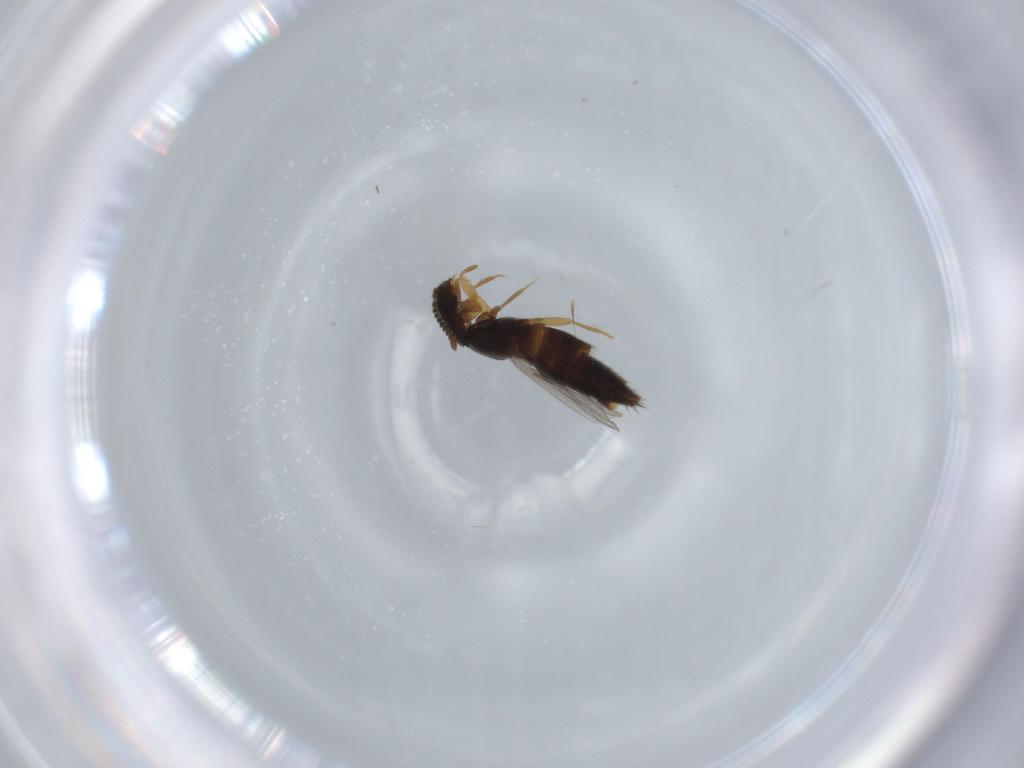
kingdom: Animalia
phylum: Arthropoda
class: Insecta
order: Coleoptera
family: Staphylinidae
